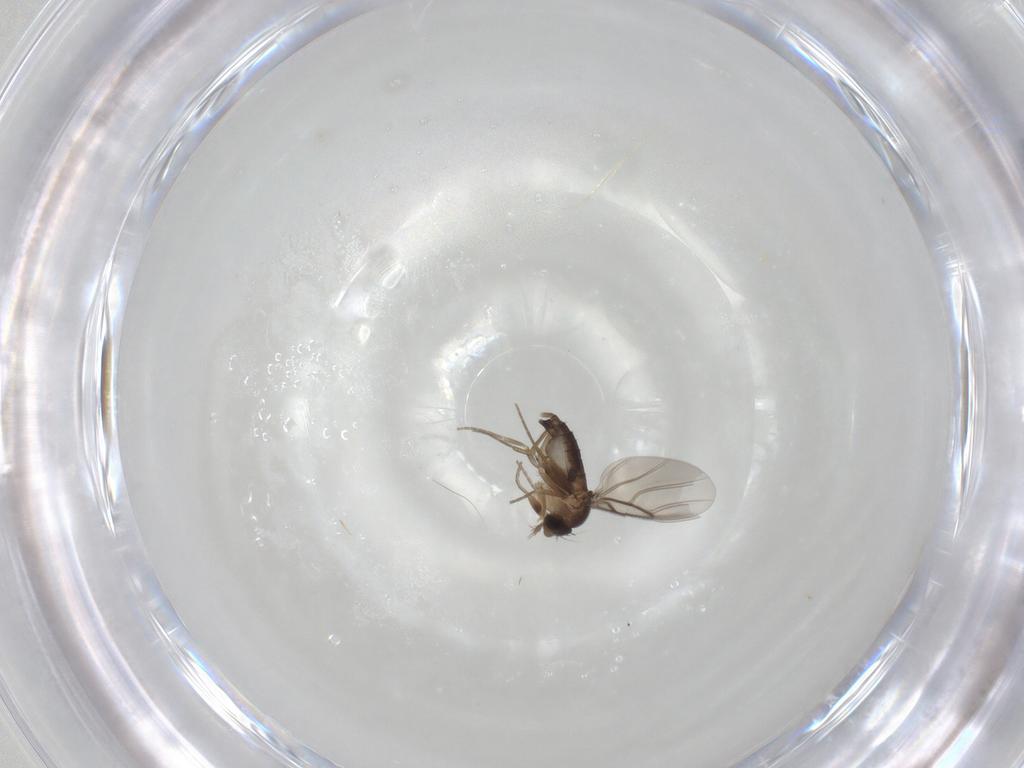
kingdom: Animalia
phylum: Arthropoda
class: Insecta
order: Diptera
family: Phoridae
